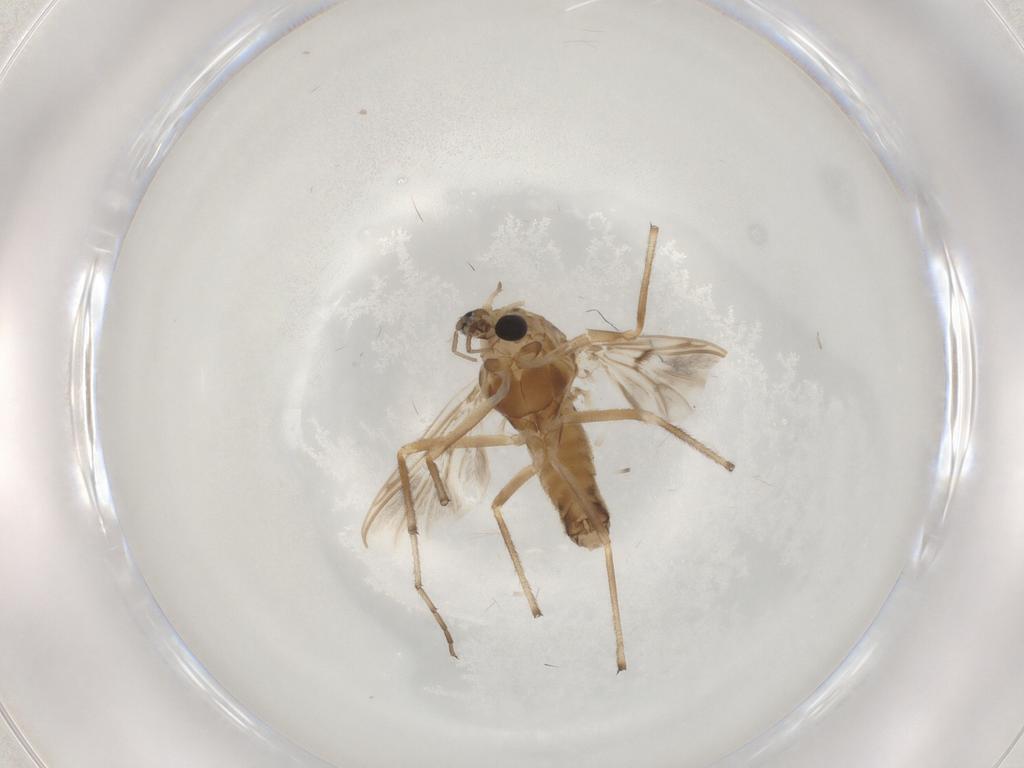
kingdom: Animalia
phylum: Arthropoda
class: Insecta
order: Diptera
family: Chironomidae
